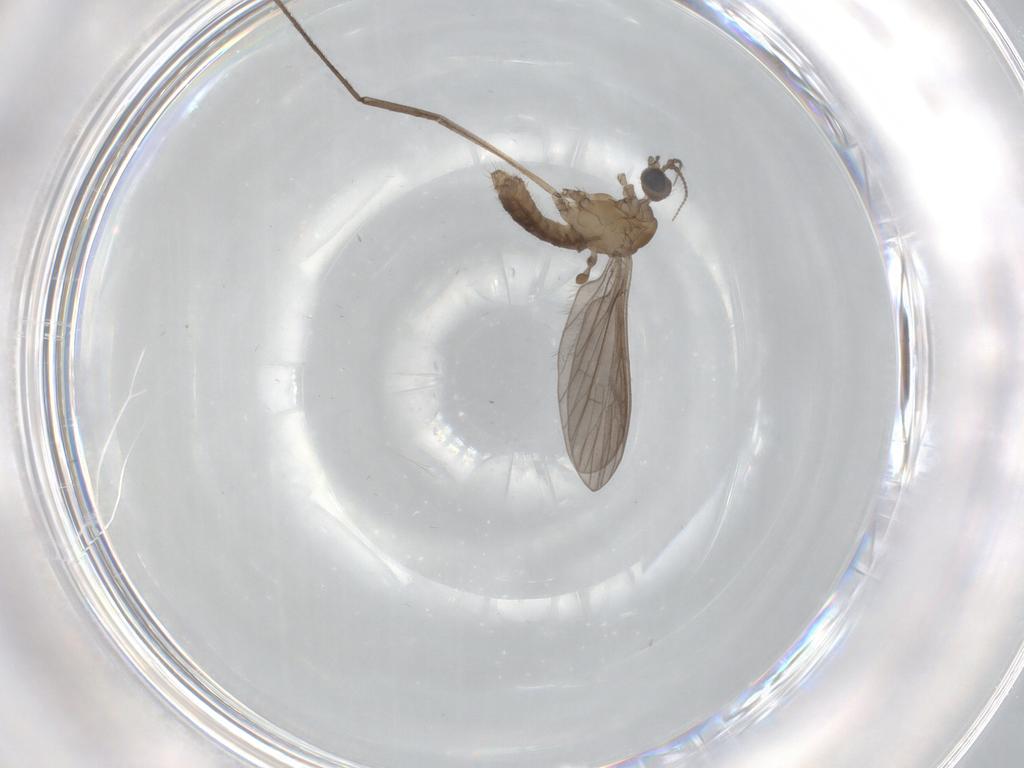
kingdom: Animalia
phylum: Arthropoda
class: Insecta
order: Diptera
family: Limoniidae
